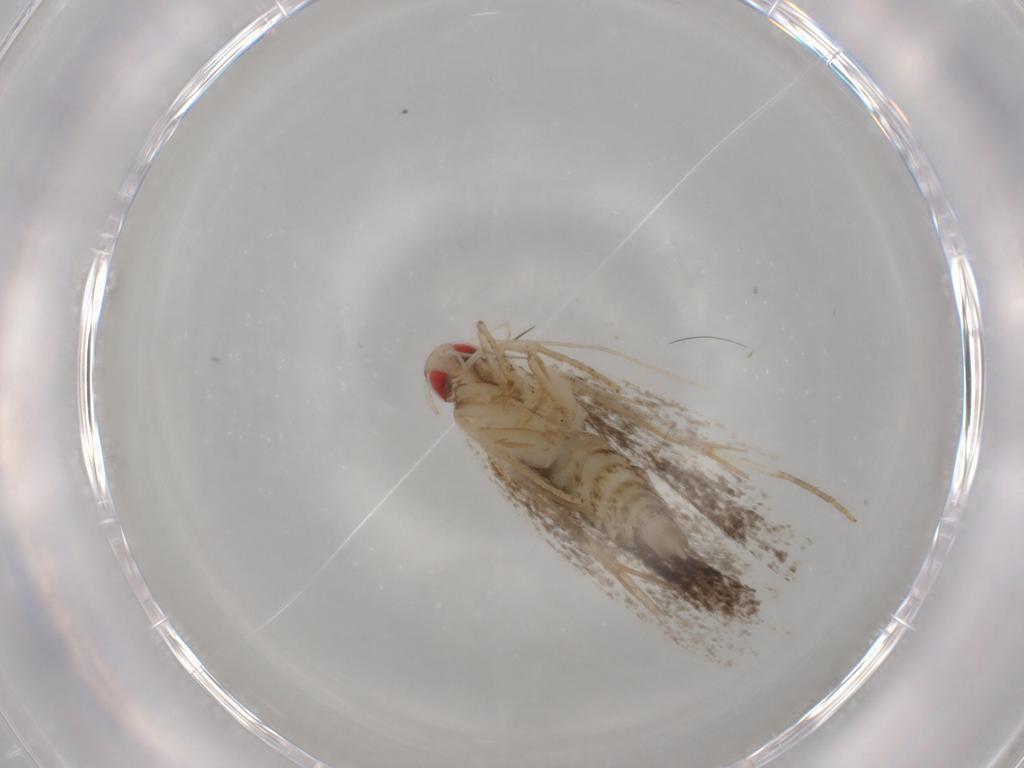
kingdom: Animalia
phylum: Arthropoda
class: Insecta
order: Lepidoptera
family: Gelechiidae
